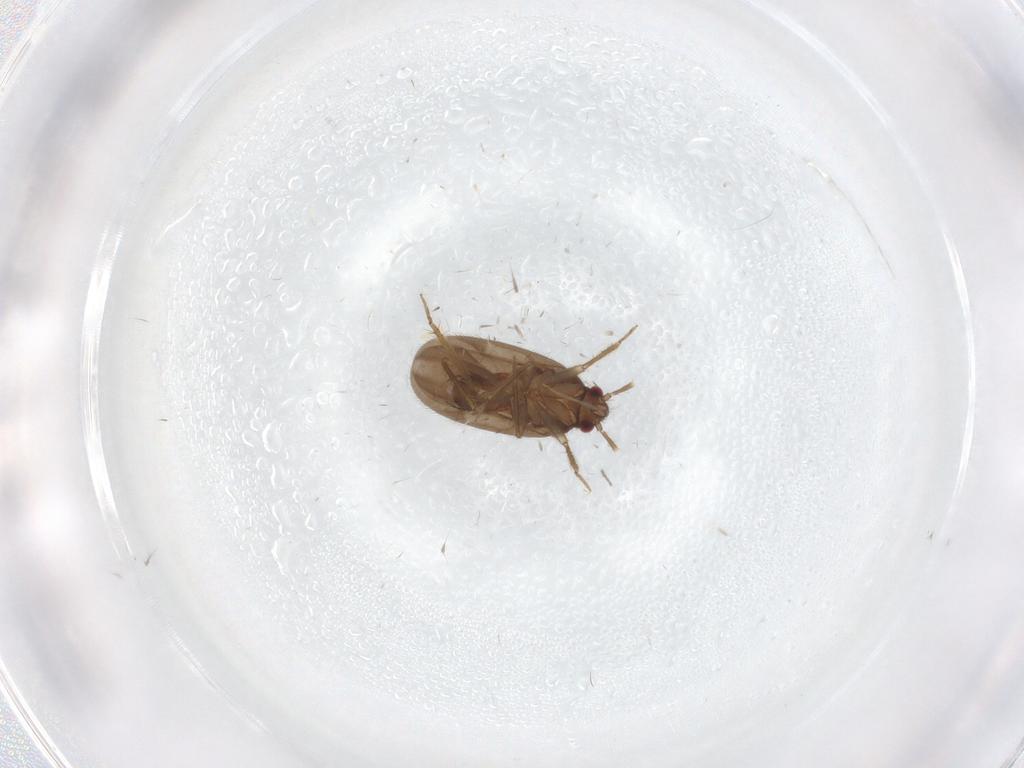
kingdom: Animalia
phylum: Arthropoda
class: Insecta
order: Hemiptera
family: Ceratocombidae
